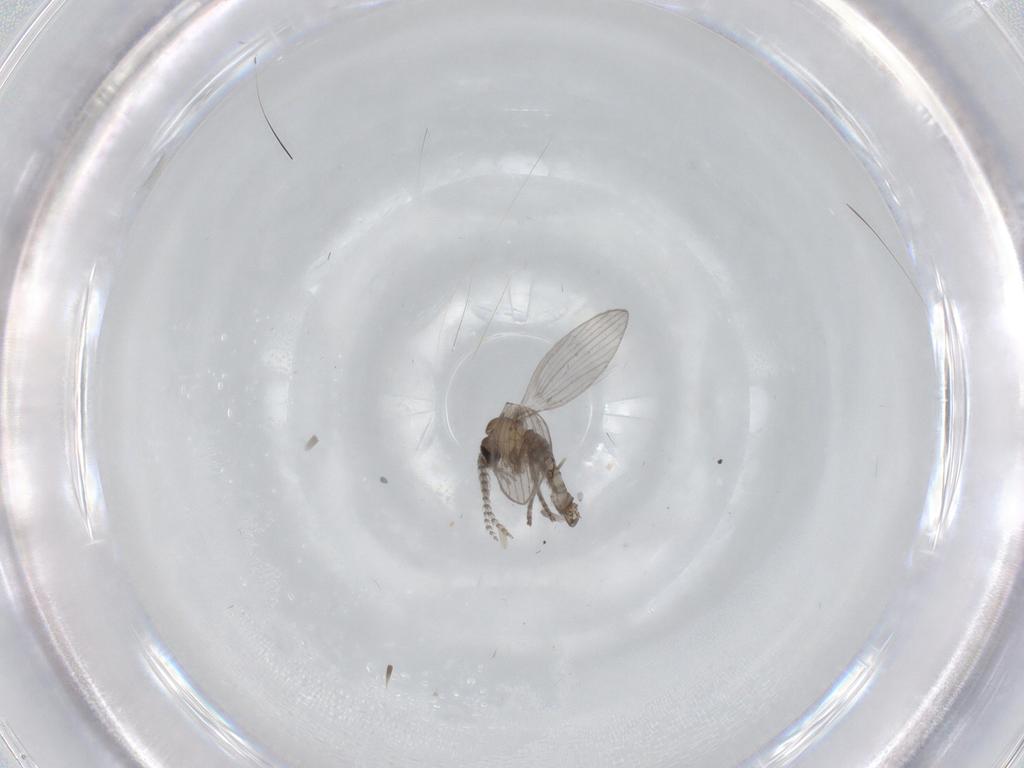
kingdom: Animalia
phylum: Arthropoda
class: Insecta
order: Diptera
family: Psychodidae
